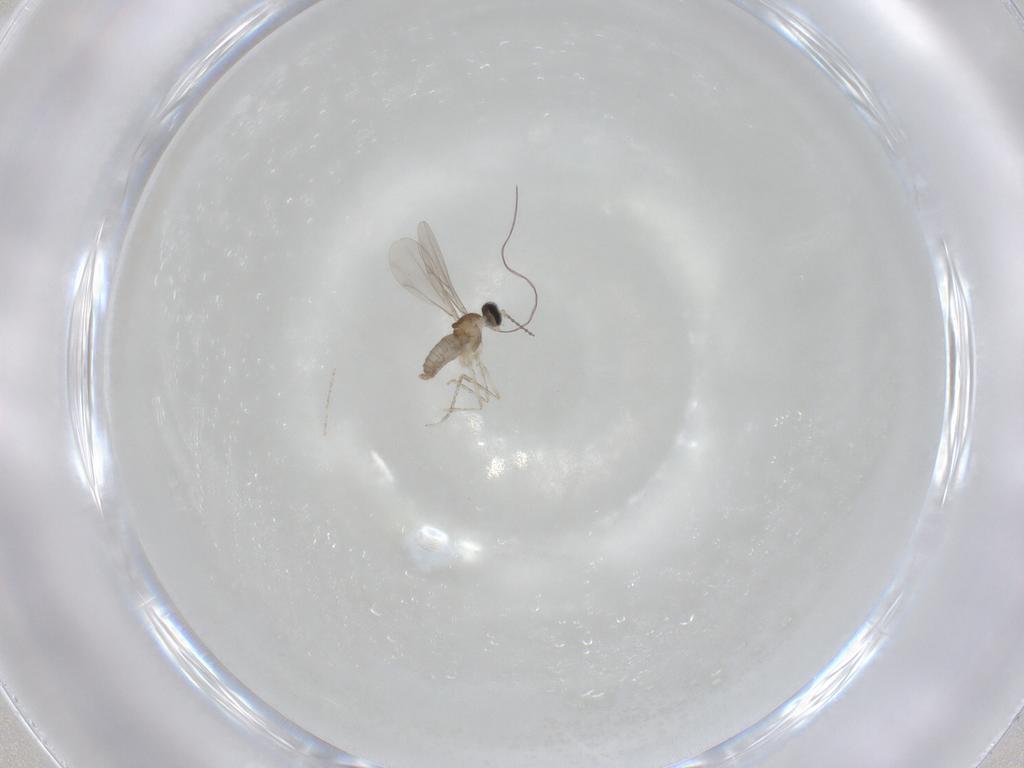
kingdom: Animalia
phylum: Arthropoda
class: Insecta
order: Diptera
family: Cecidomyiidae
